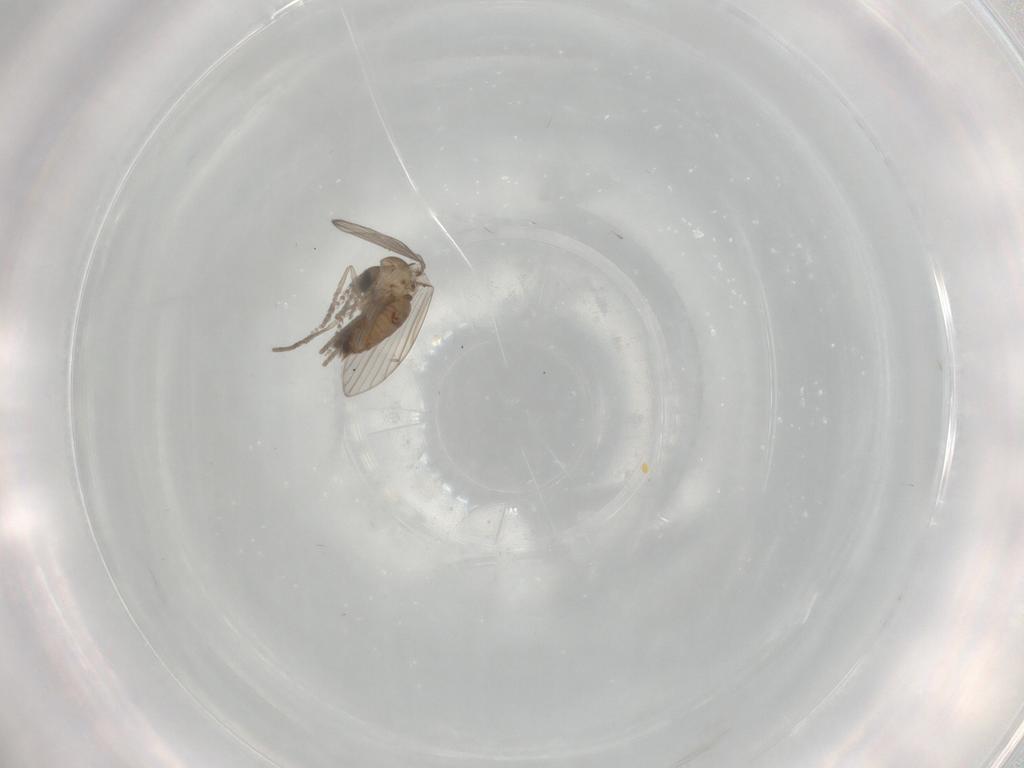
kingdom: Animalia
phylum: Arthropoda
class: Insecta
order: Diptera
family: Psychodidae
